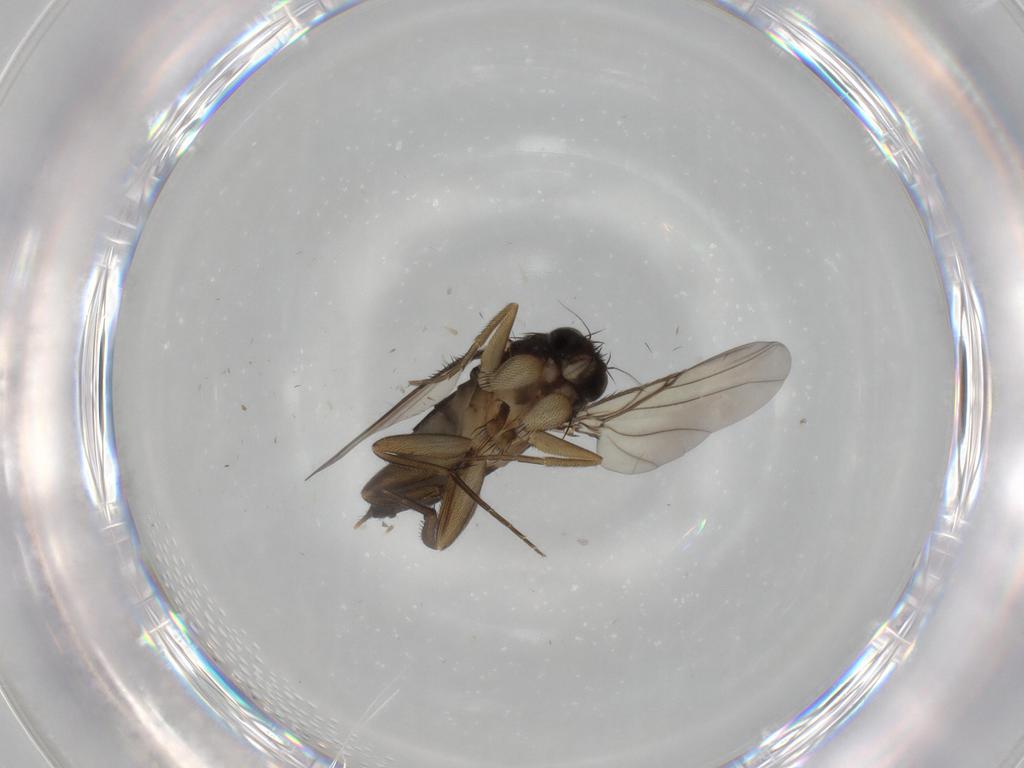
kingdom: Animalia
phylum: Arthropoda
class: Insecta
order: Diptera
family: Phoridae
